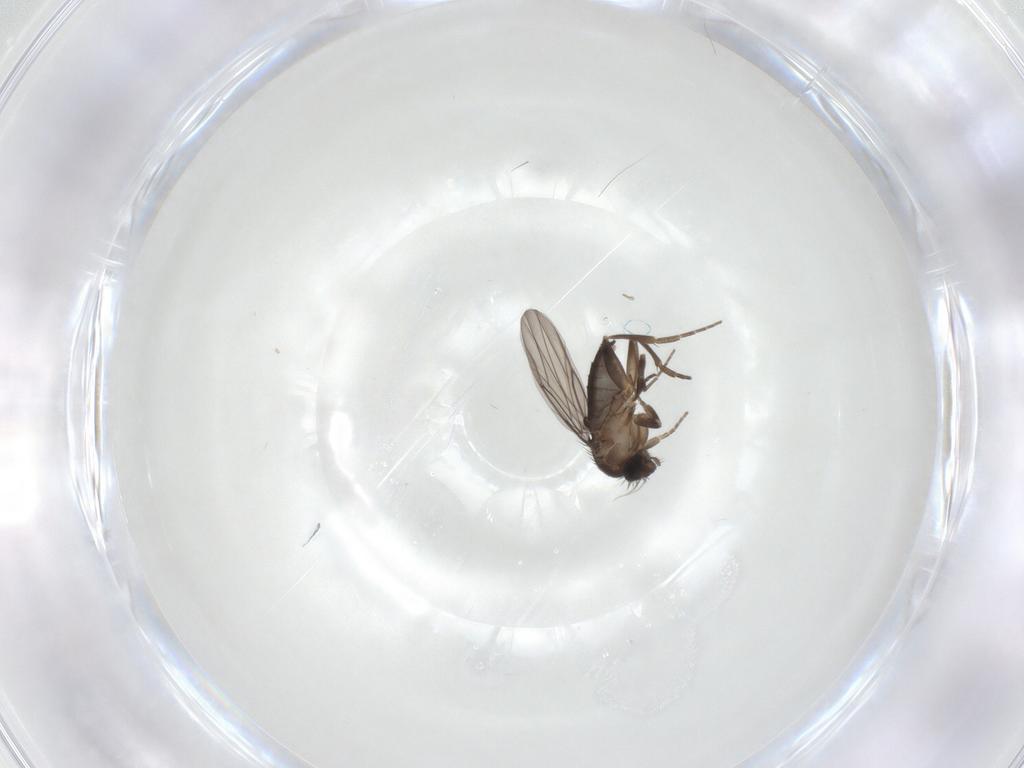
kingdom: Animalia
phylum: Arthropoda
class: Insecta
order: Diptera
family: Phoridae
